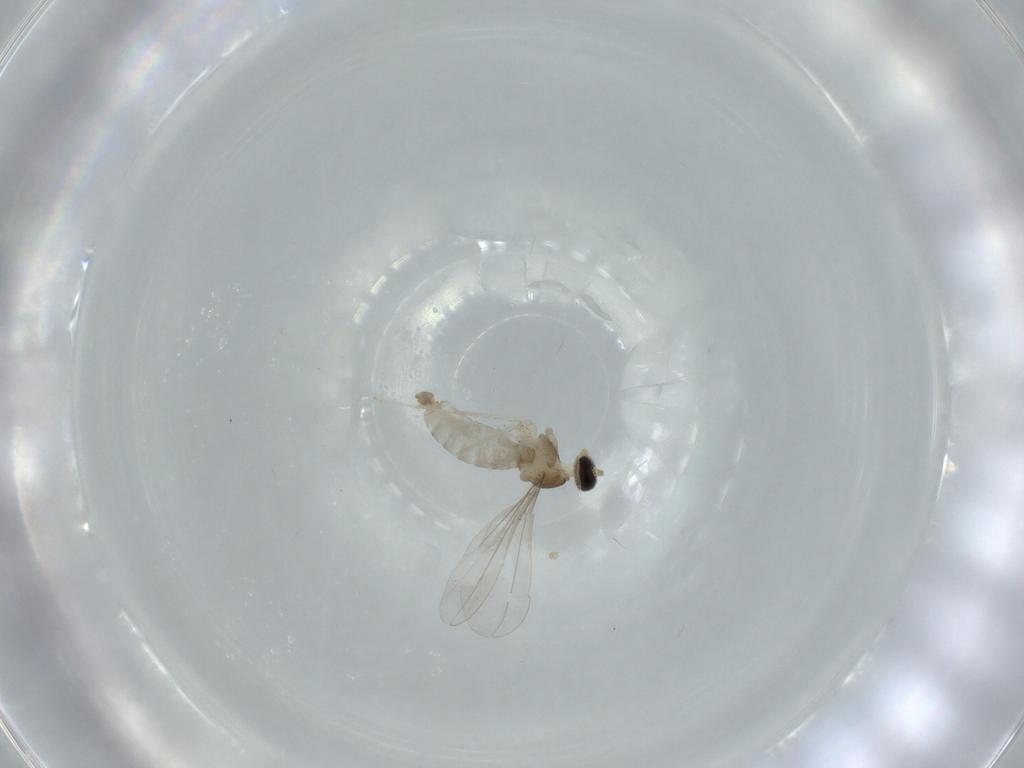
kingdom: Animalia
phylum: Arthropoda
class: Insecta
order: Diptera
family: Cecidomyiidae
